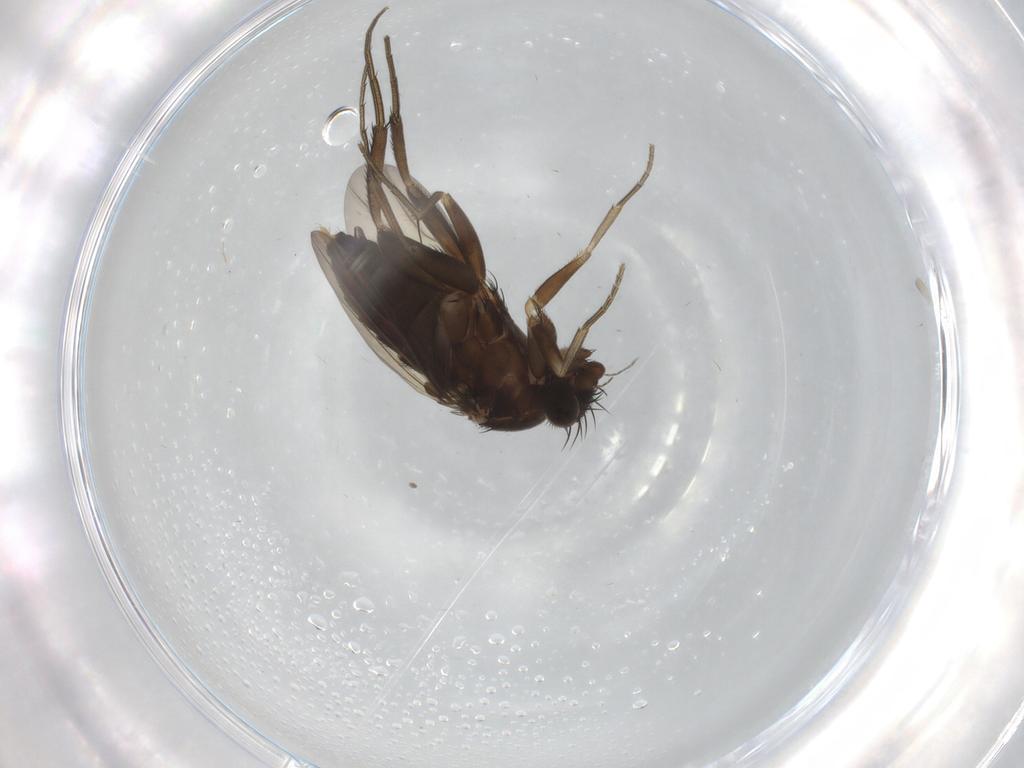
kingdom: Animalia
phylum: Arthropoda
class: Insecta
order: Diptera
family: Phoridae
